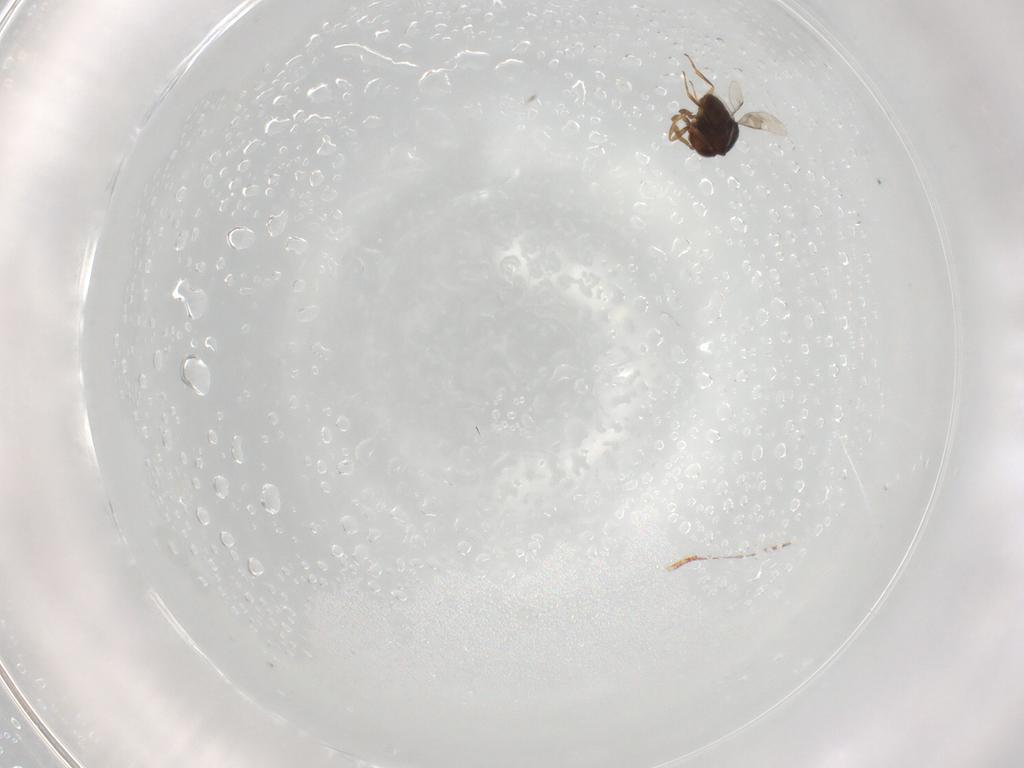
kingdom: Animalia
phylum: Arthropoda
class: Insecta
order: Hymenoptera
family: Scelionidae
